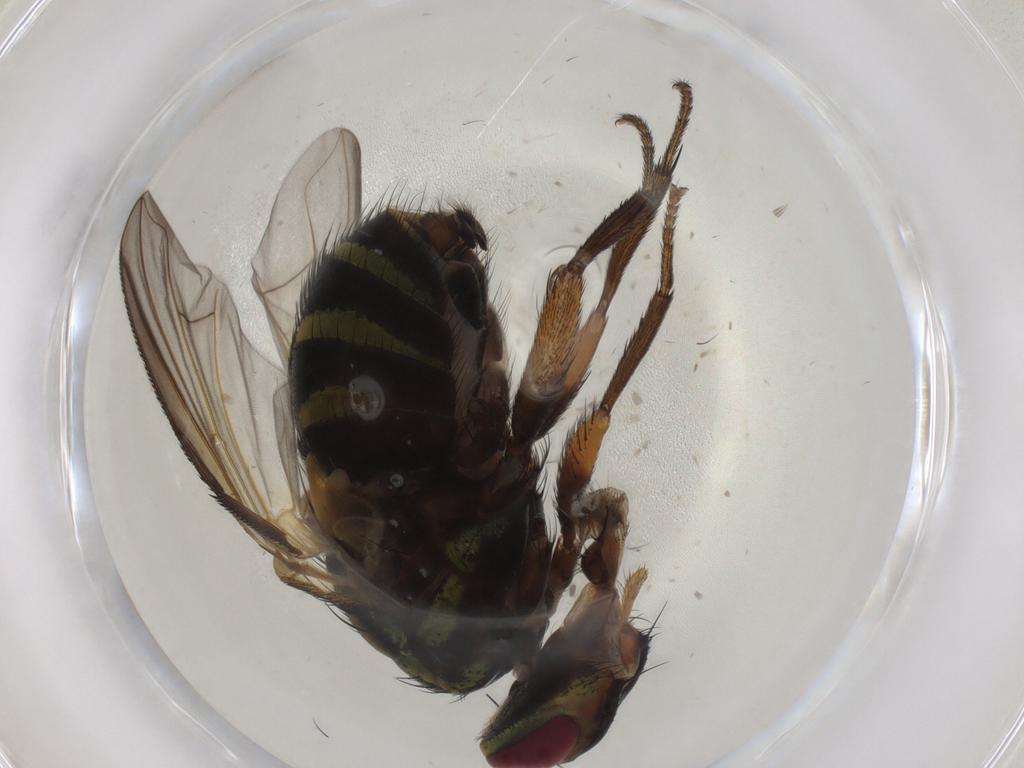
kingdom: Animalia
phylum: Arthropoda
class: Insecta
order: Diptera
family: Tachinidae
